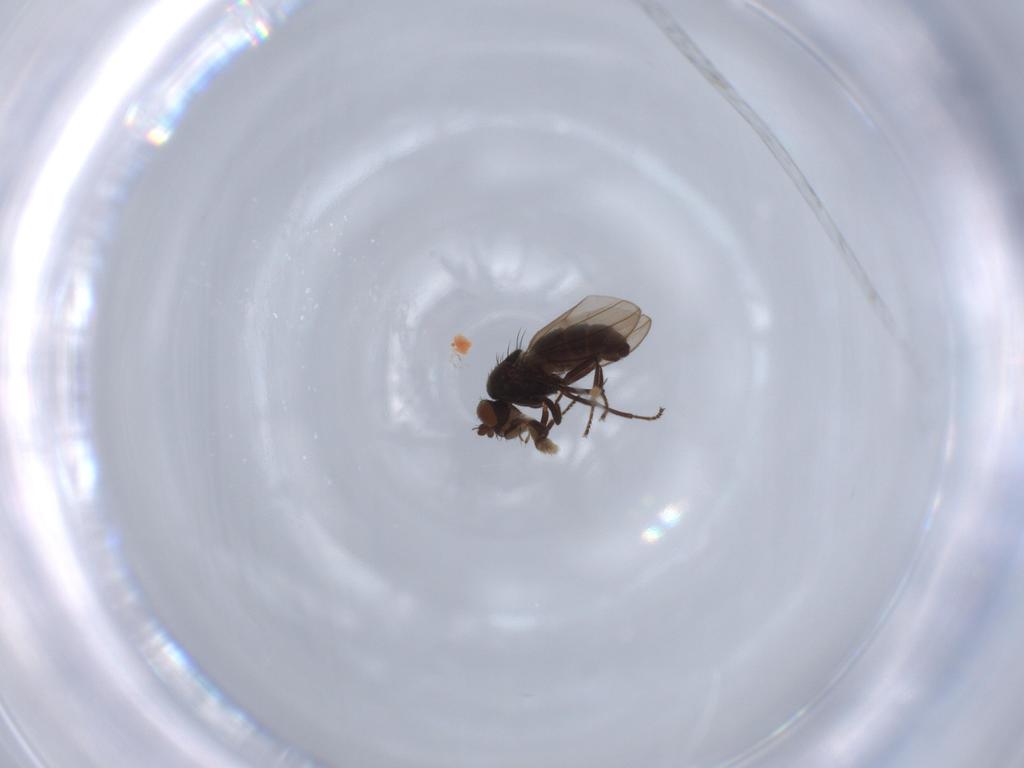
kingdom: Animalia
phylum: Arthropoda
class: Insecta
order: Diptera
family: Ephydridae
